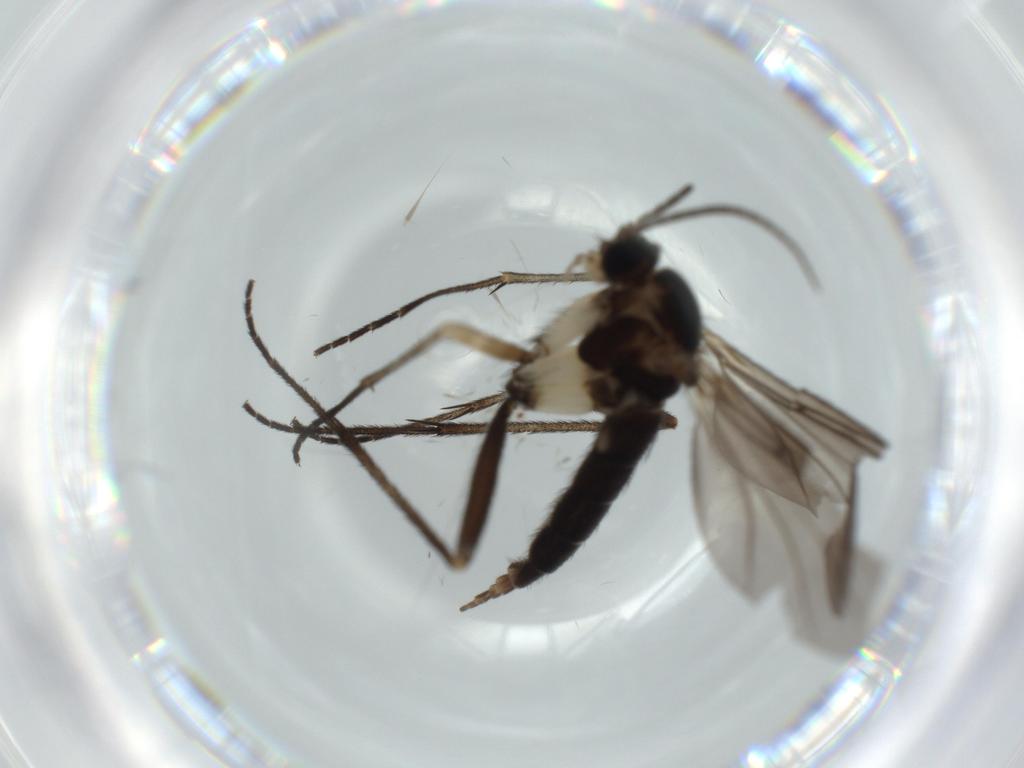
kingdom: Animalia
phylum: Arthropoda
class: Insecta
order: Diptera
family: Sciaridae
